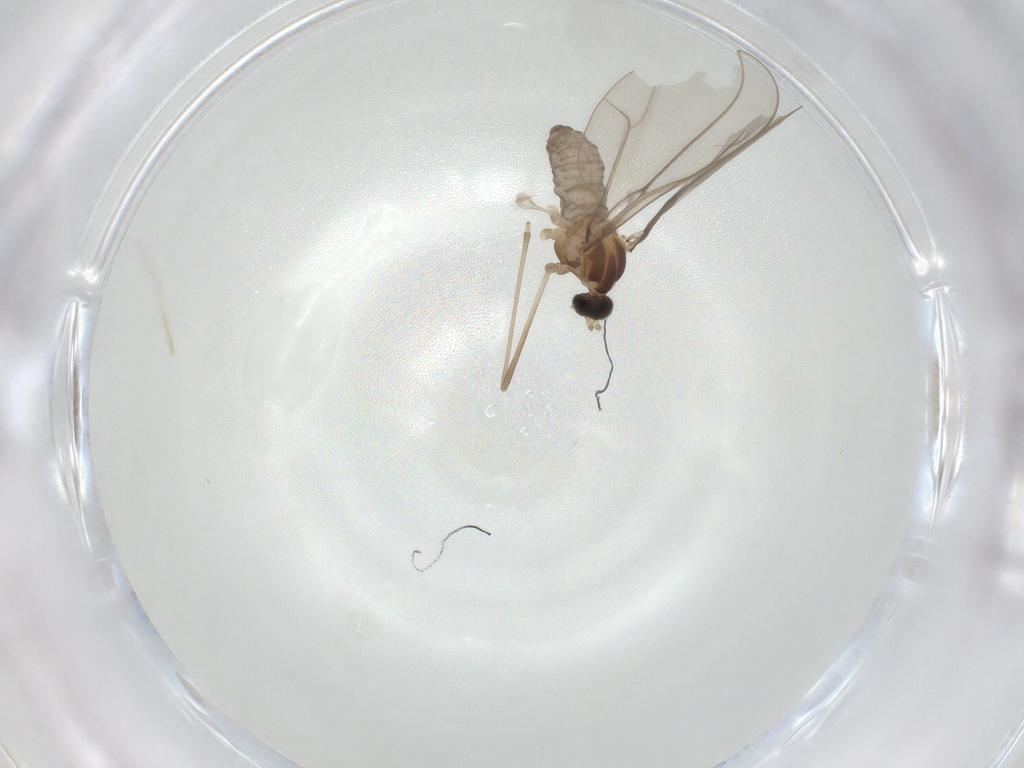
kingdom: Animalia
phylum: Arthropoda
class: Insecta
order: Diptera
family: Cecidomyiidae
